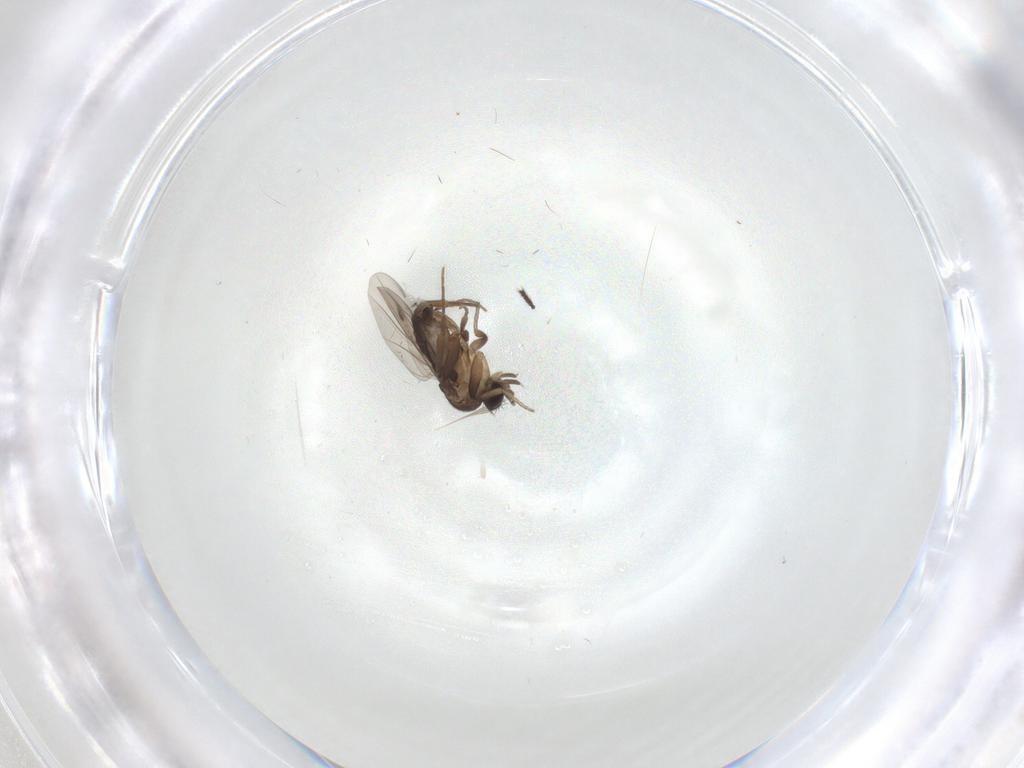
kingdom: Animalia
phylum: Arthropoda
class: Insecta
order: Diptera
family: Phoridae
